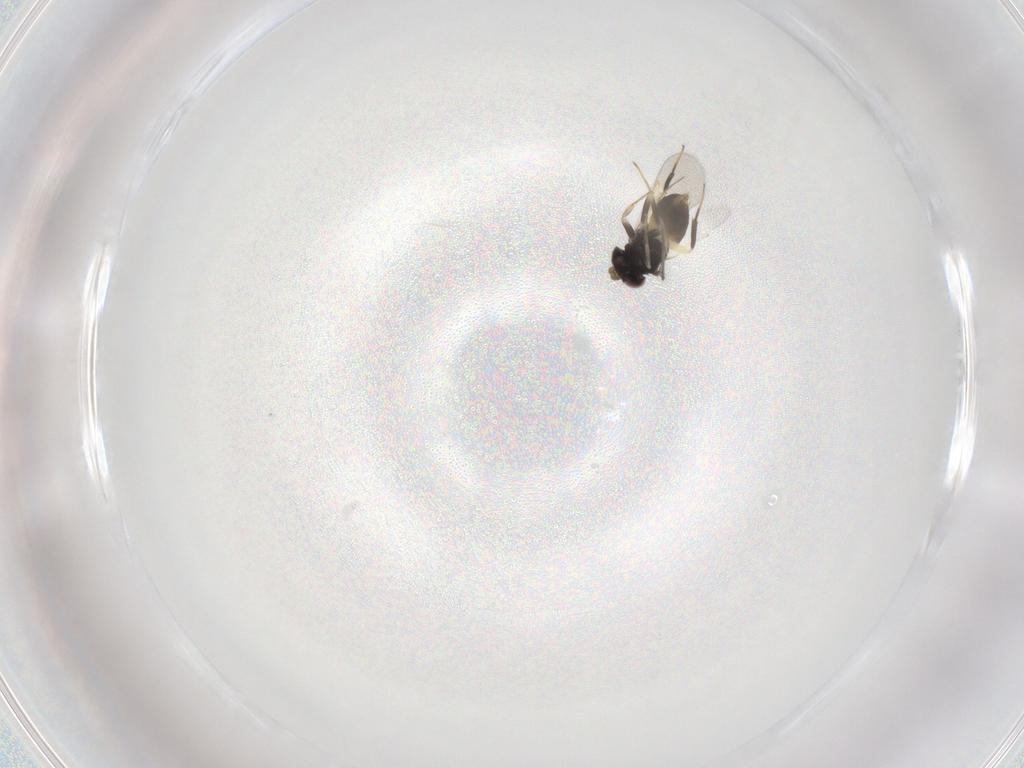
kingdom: Animalia
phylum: Arthropoda
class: Insecta
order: Hymenoptera
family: Aphelinidae
